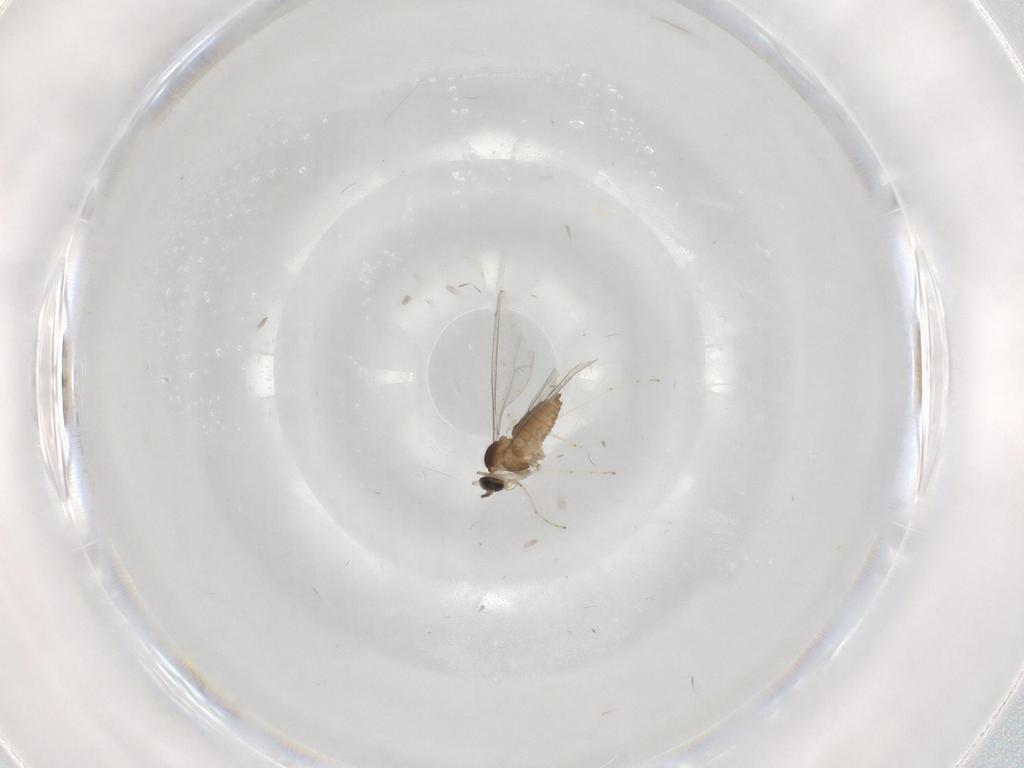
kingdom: Animalia
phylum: Arthropoda
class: Insecta
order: Diptera
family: Cecidomyiidae
